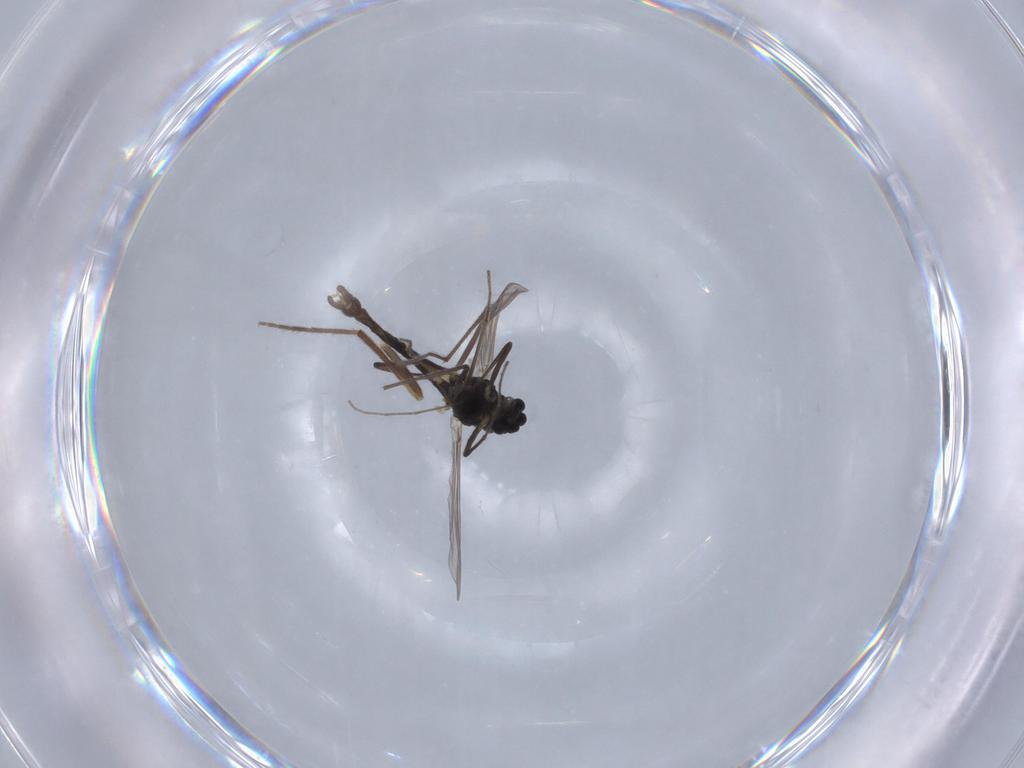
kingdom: Animalia
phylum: Arthropoda
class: Insecta
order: Diptera
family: Chironomidae
